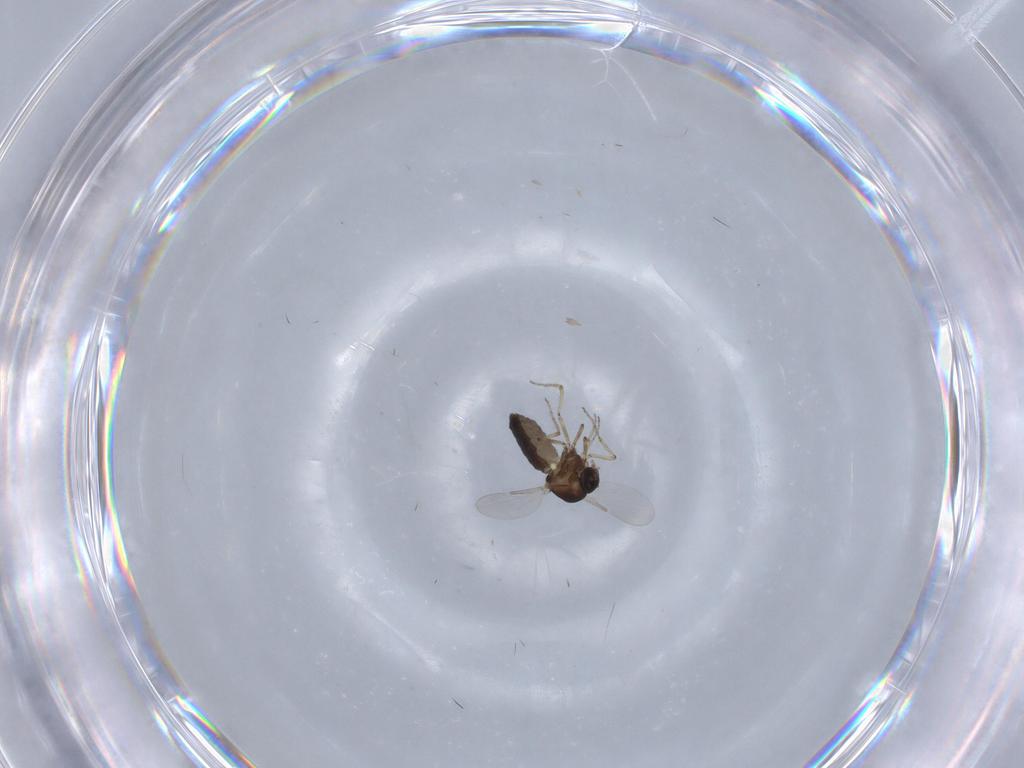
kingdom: Animalia
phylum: Arthropoda
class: Insecta
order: Diptera
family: Ceratopogonidae
